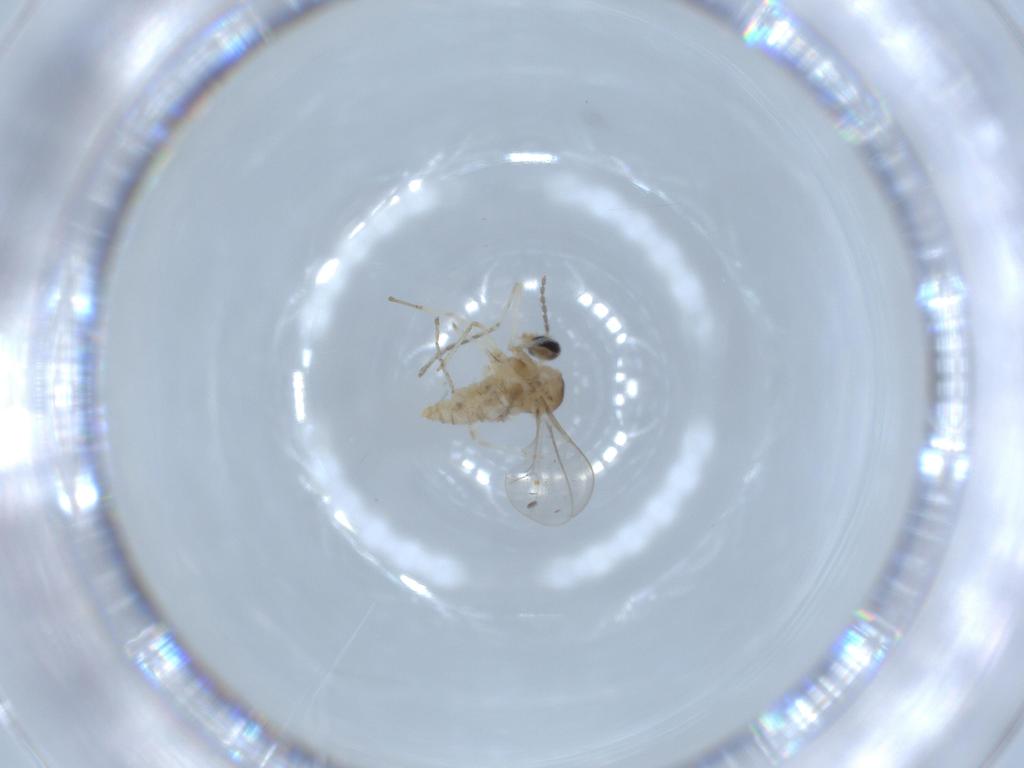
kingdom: Animalia
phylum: Arthropoda
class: Insecta
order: Diptera
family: Cecidomyiidae
